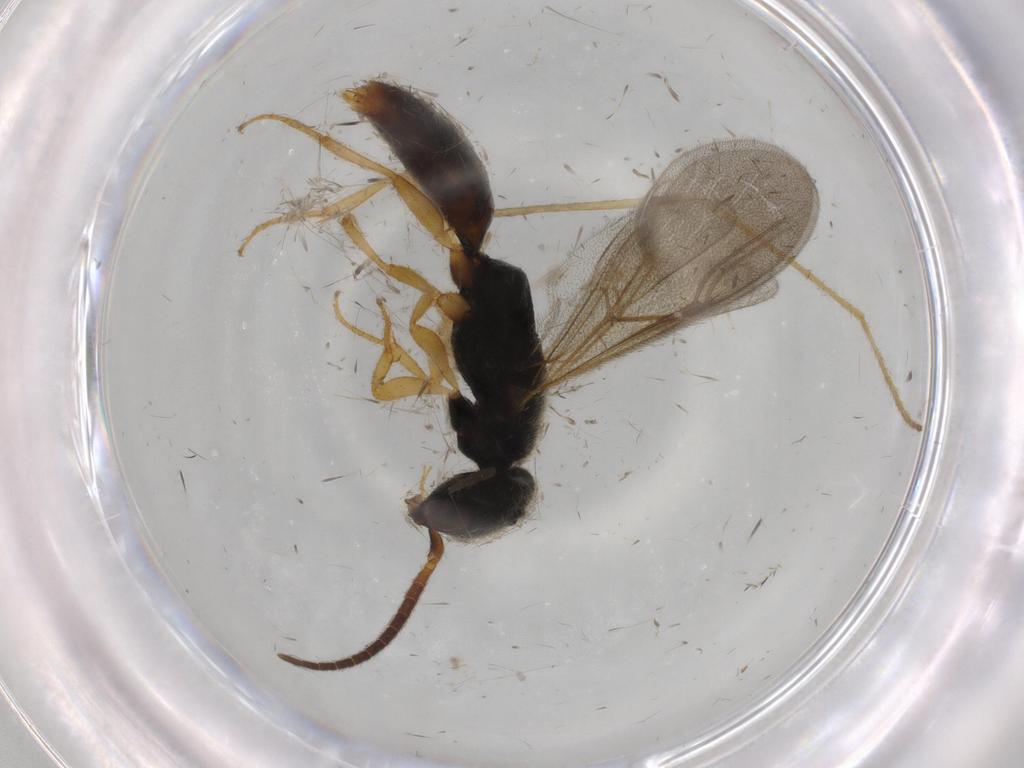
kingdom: Animalia
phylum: Arthropoda
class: Insecta
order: Hymenoptera
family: Bethylidae
